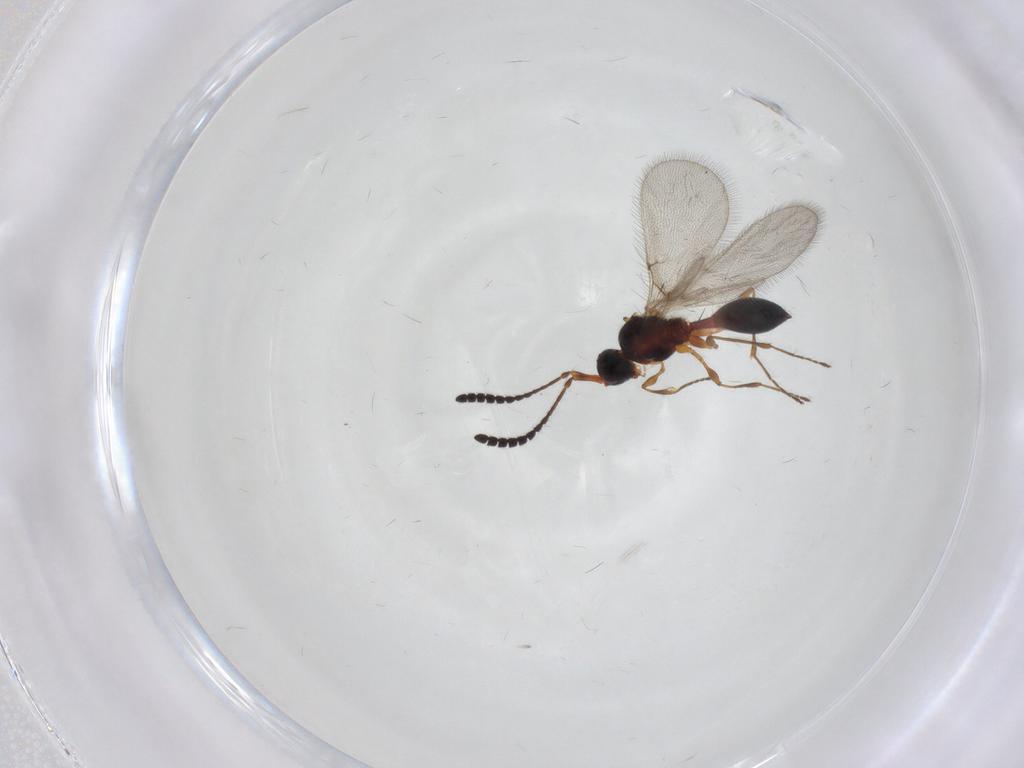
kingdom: Animalia
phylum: Arthropoda
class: Insecta
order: Hymenoptera
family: Diapriidae
